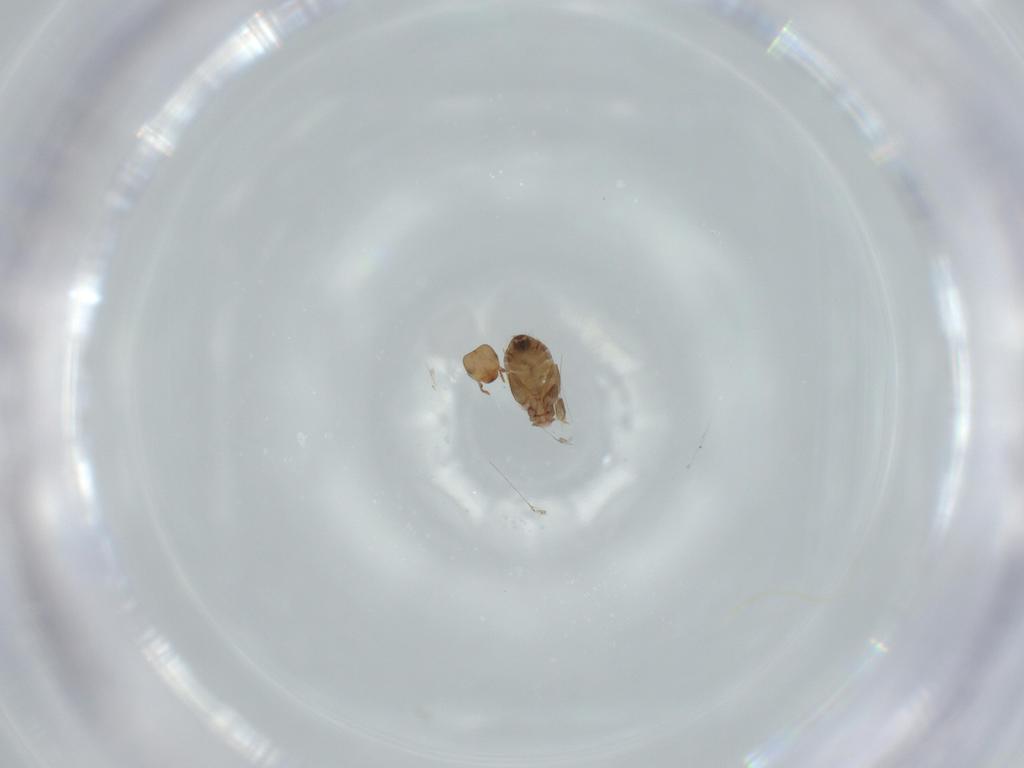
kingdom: Animalia
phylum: Arthropoda
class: Insecta
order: Psocodea
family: Liposcelididae
